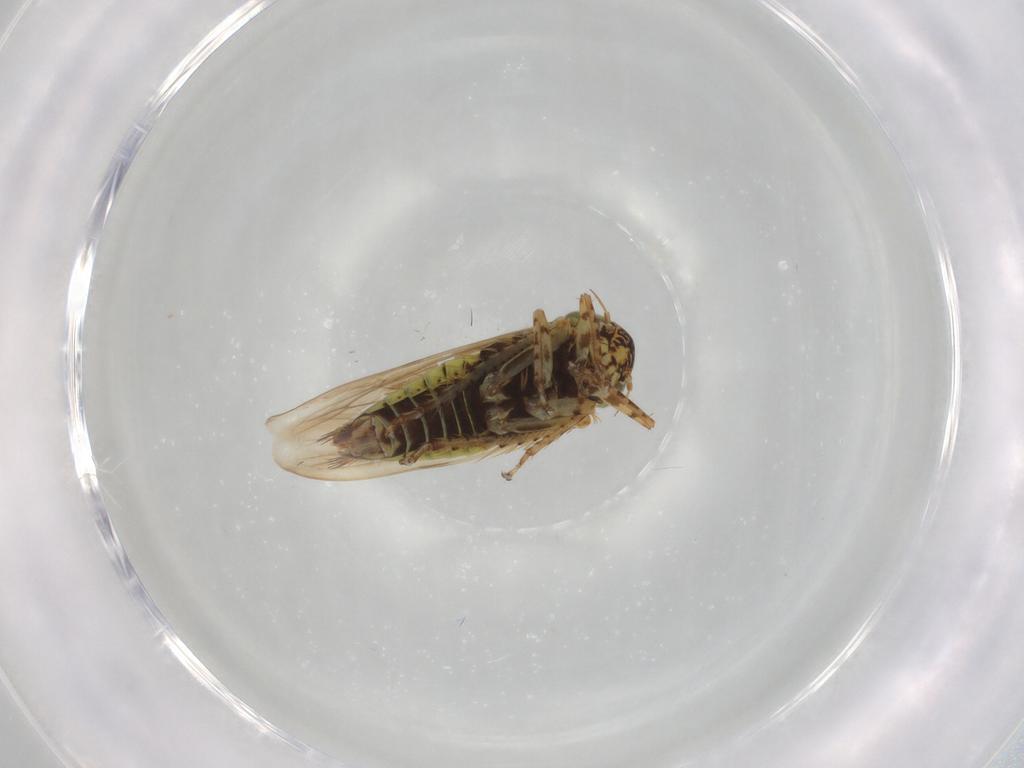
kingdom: Animalia
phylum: Arthropoda
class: Insecta
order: Hemiptera
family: Cicadellidae
